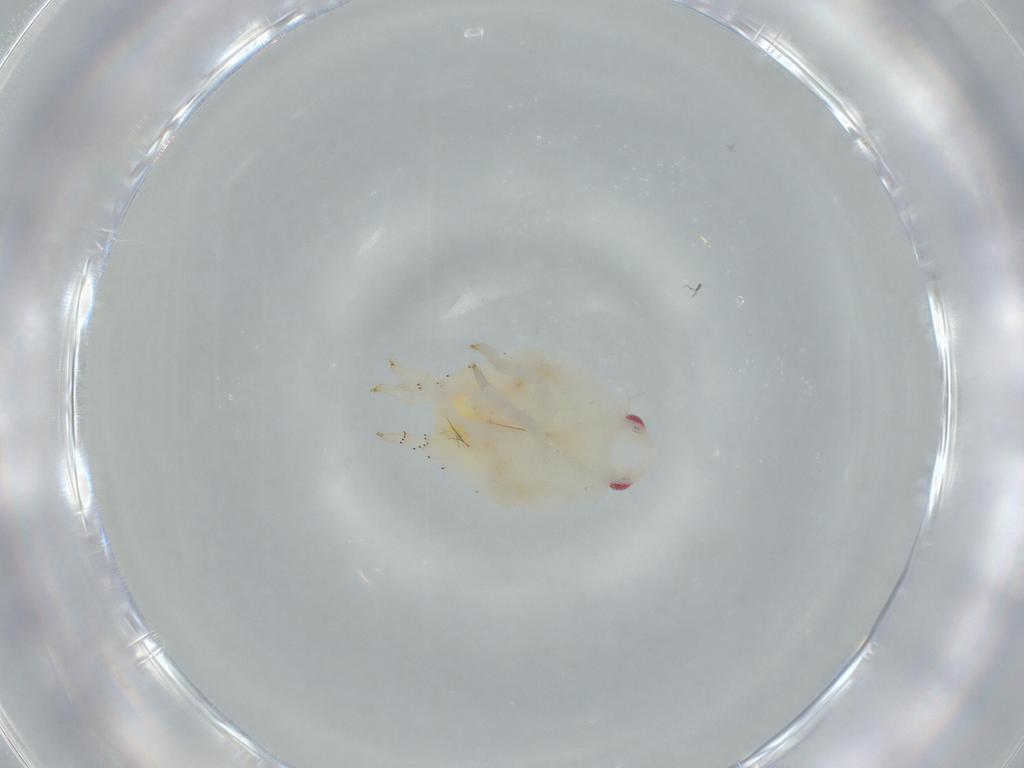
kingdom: Animalia
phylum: Arthropoda
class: Insecta
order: Hemiptera
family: Flatidae
